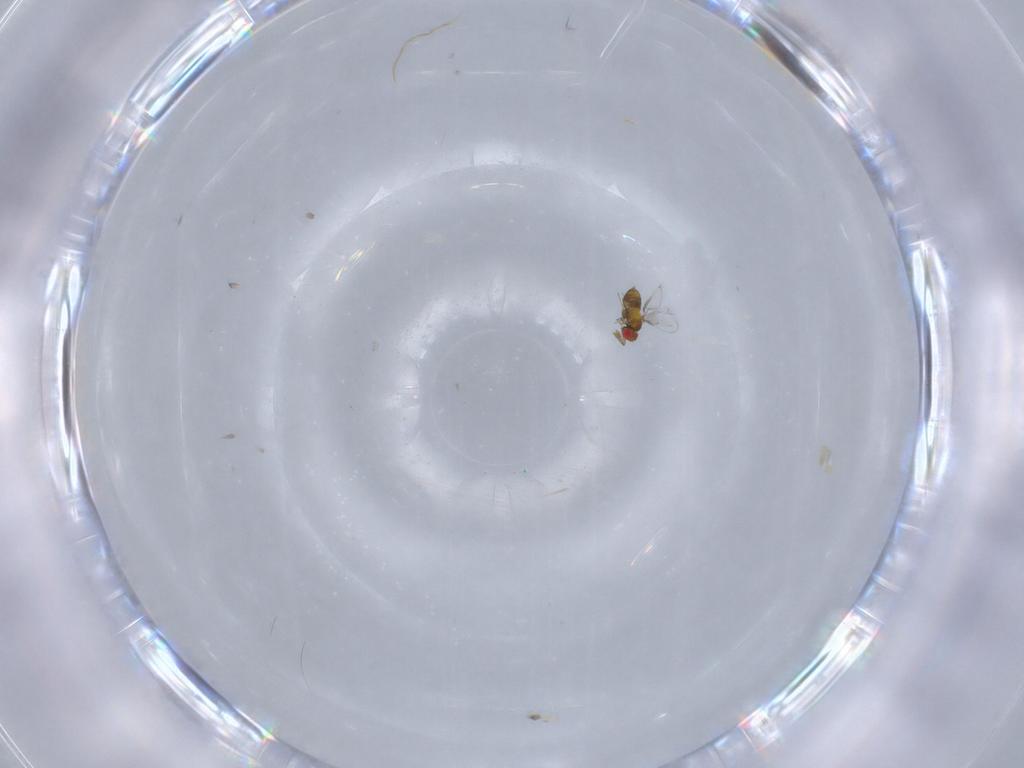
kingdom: Animalia
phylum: Arthropoda
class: Insecta
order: Hymenoptera
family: Trichogrammatidae
